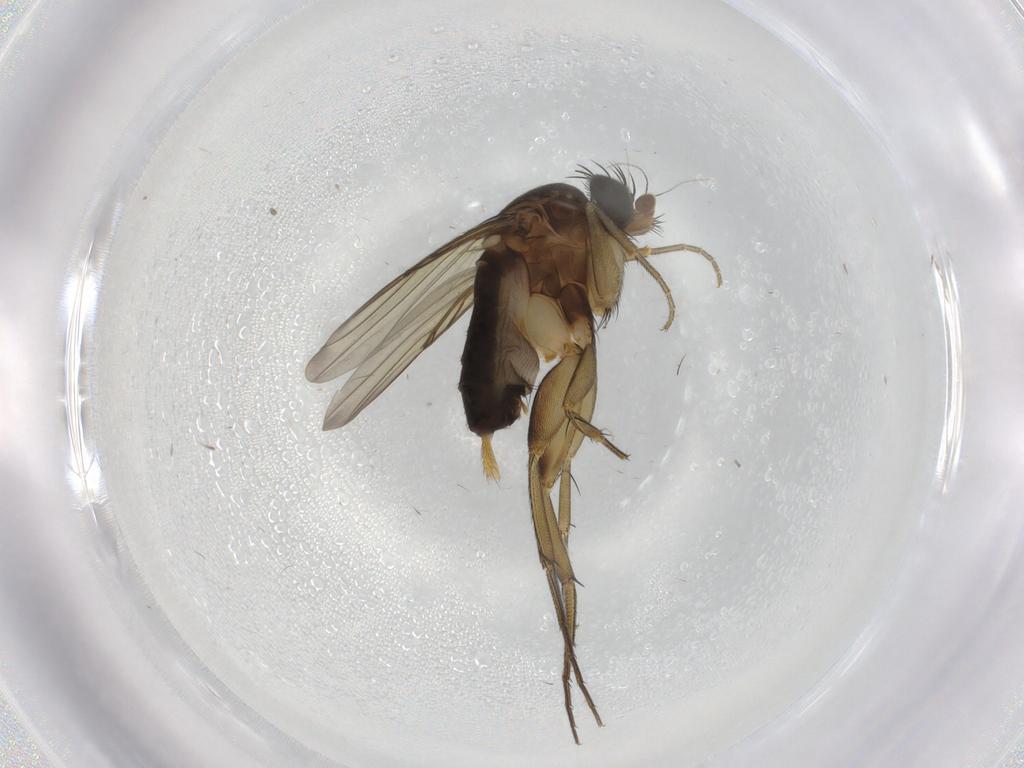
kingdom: Animalia
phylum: Arthropoda
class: Insecta
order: Diptera
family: Phoridae
